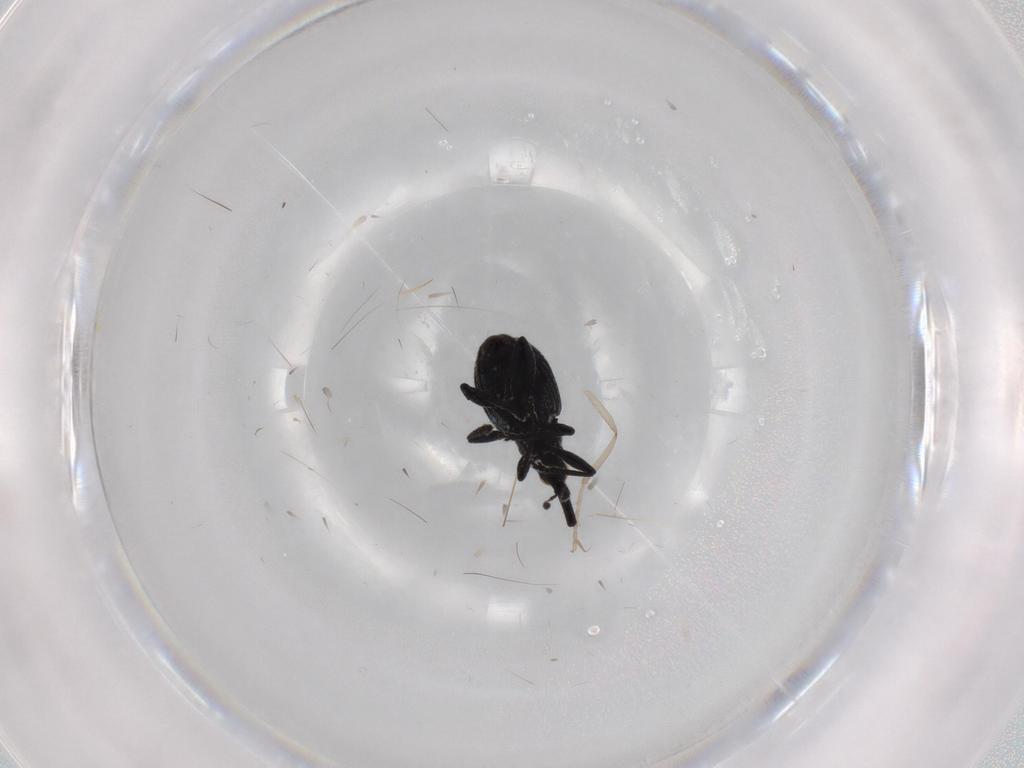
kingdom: Animalia
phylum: Arthropoda
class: Insecta
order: Coleoptera
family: Brentidae
